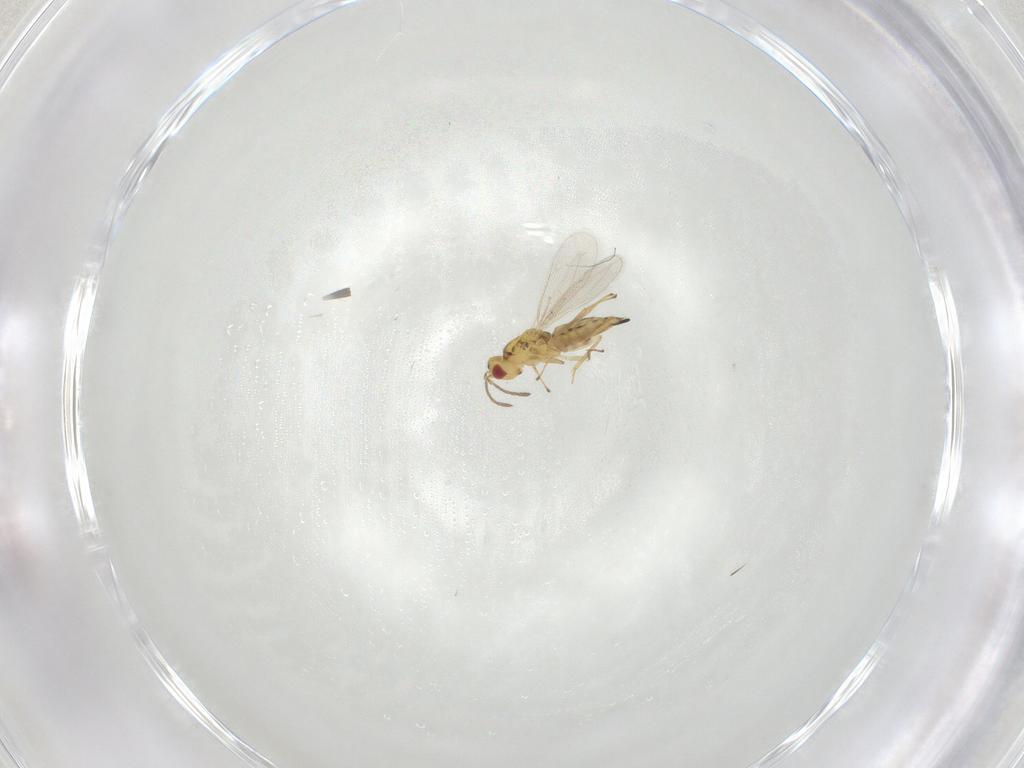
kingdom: Animalia
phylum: Arthropoda
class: Insecta
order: Hymenoptera
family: Eulophidae
